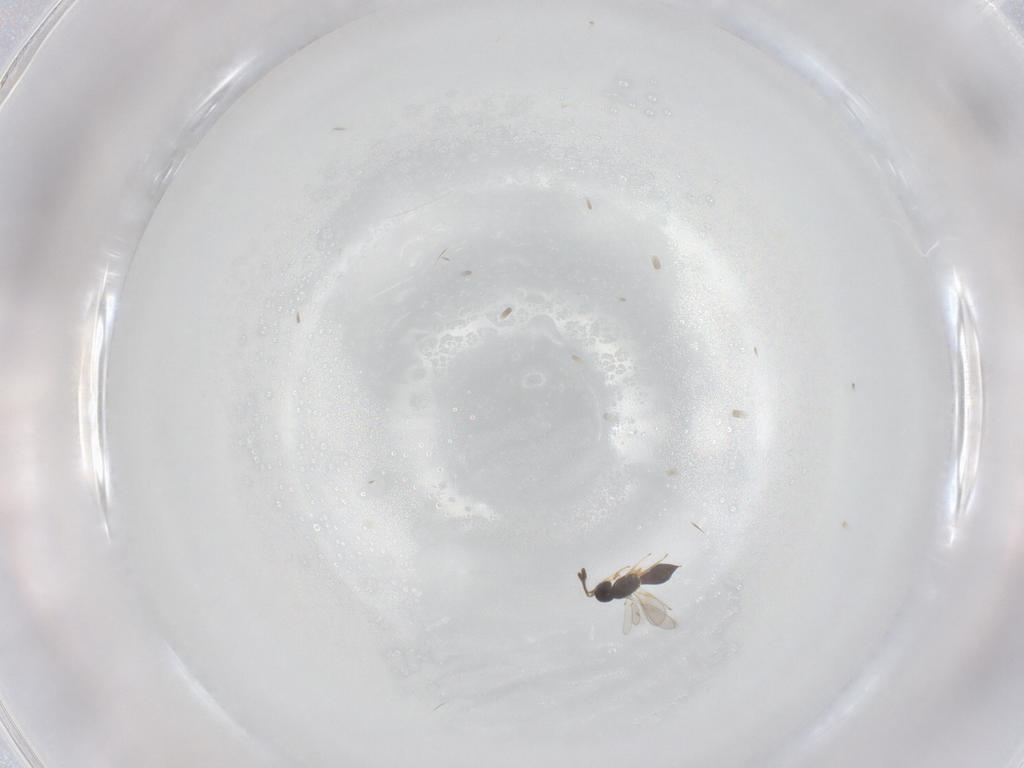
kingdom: Animalia
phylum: Arthropoda
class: Insecta
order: Hymenoptera
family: Scelionidae
